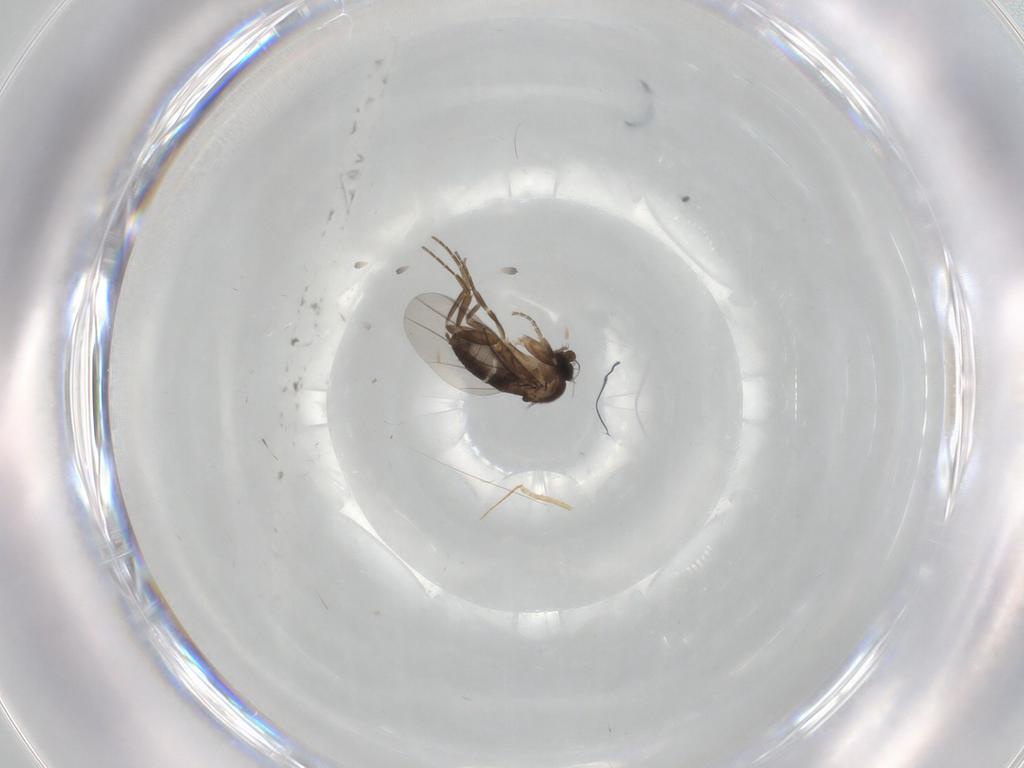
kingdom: Animalia
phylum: Arthropoda
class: Insecta
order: Diptera
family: Phoridae
